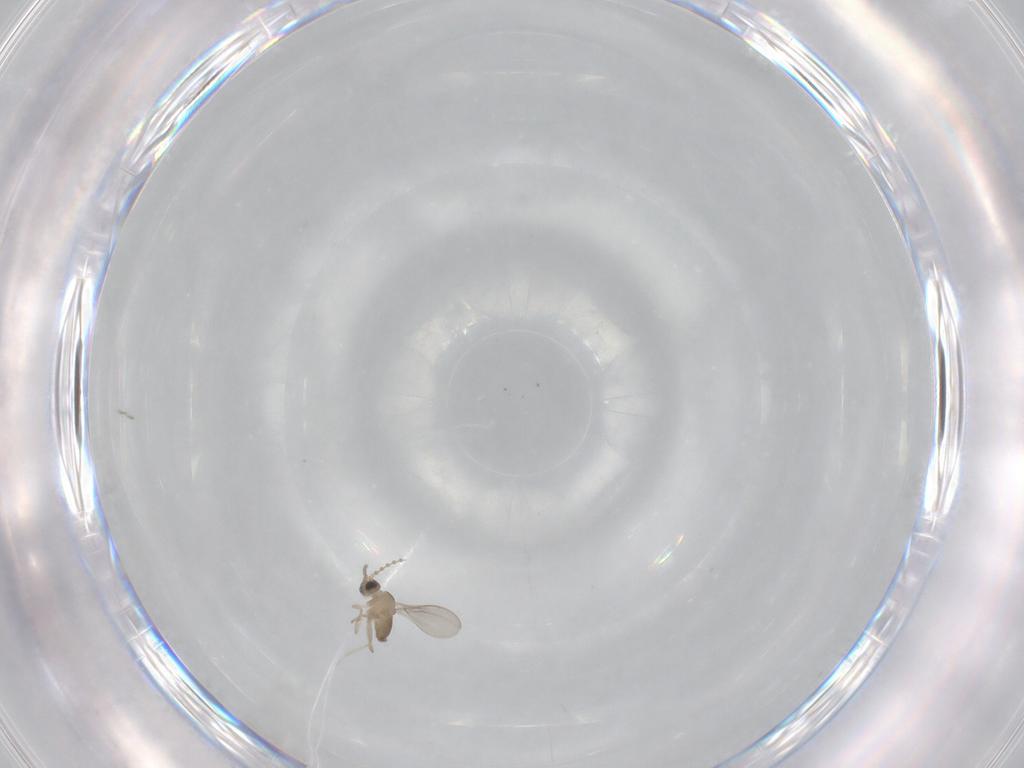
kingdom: Animalia
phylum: Arthropoda
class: Insecta
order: Diptera
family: Cecidomyiidae
